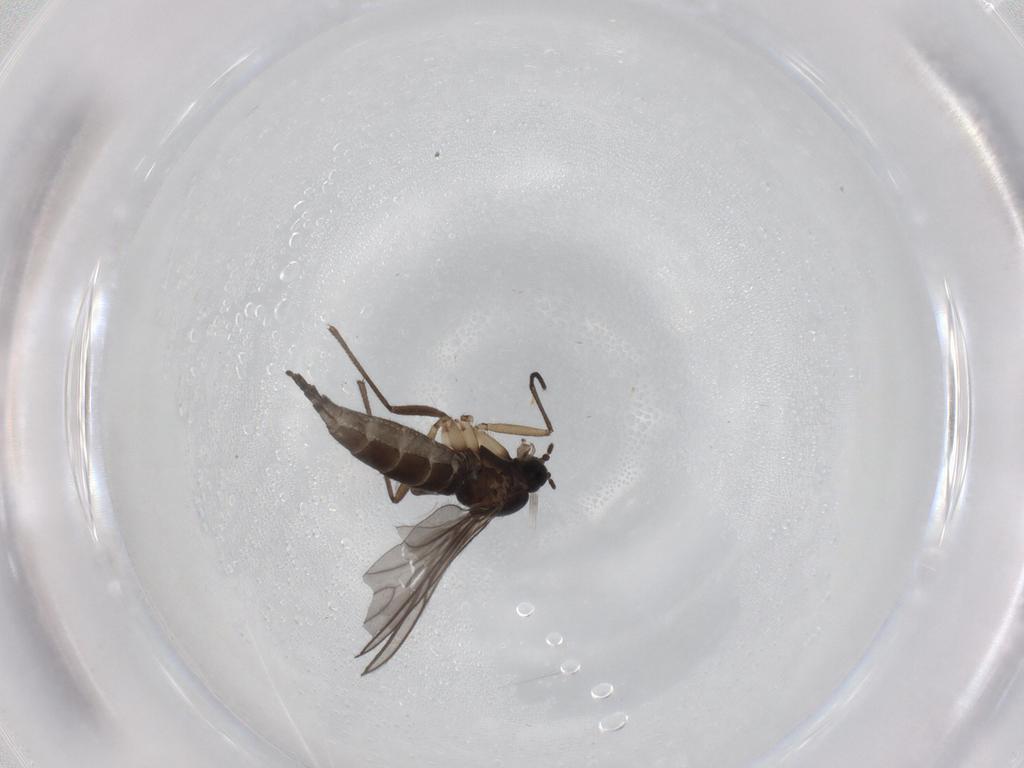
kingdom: Animalia
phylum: Arthropoda
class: Insecta
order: Diptera
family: Sciaridae
